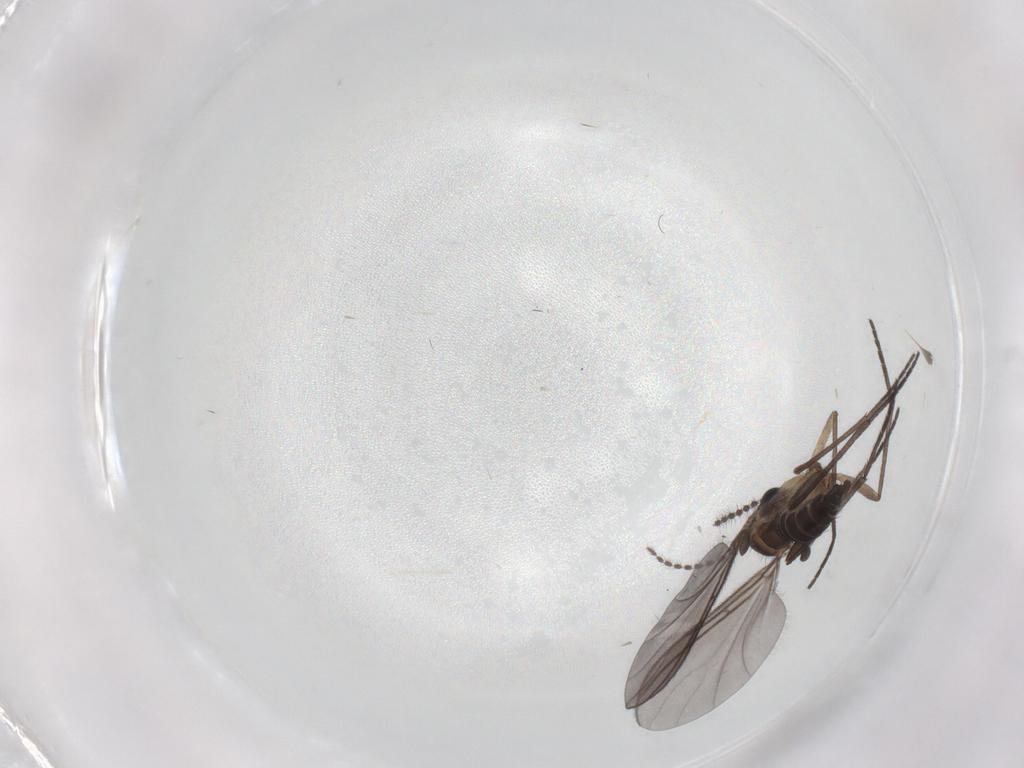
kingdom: Animalia
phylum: Arthropoda
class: Insecta
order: Diptera
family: Sciaridae
